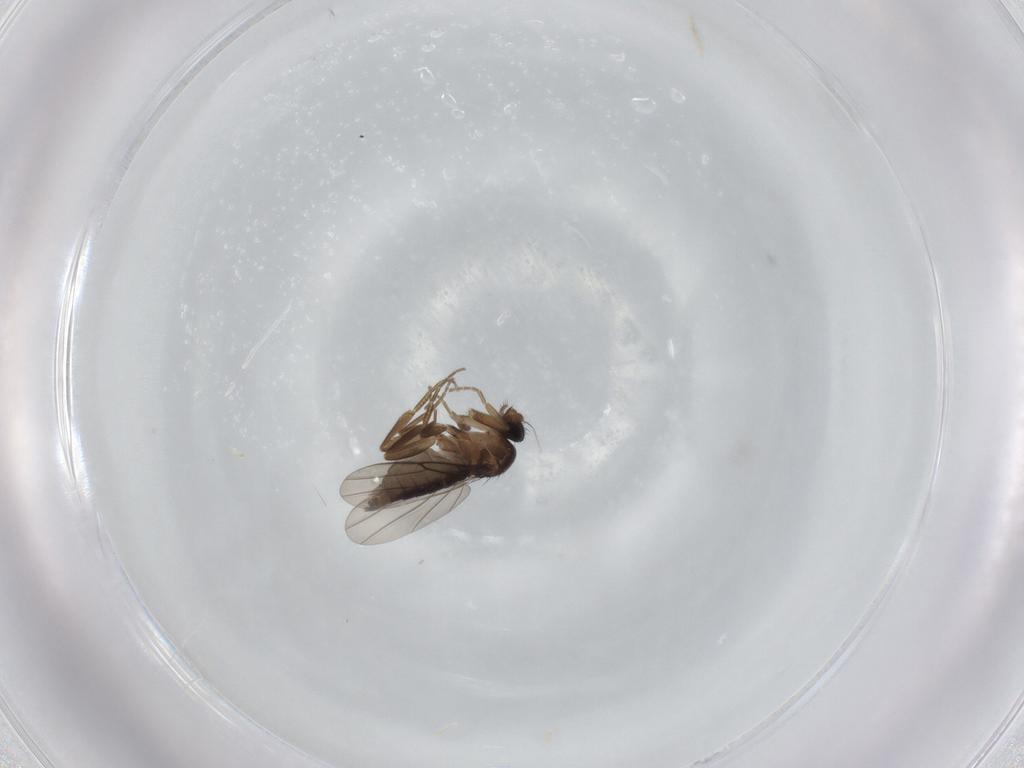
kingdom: Animalia
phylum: Arthropoda
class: Insecta
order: Diptera
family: Phoridae
